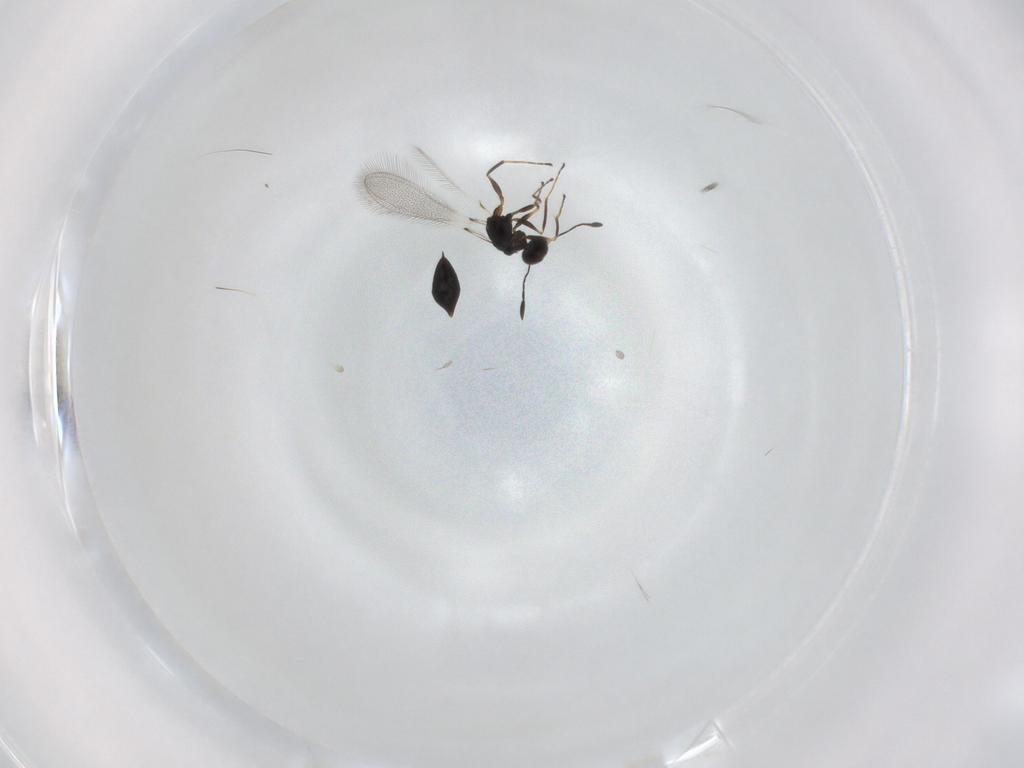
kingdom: Animalia
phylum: Arthropoda
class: Insecta
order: Hymenoptera
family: Mymaridae
